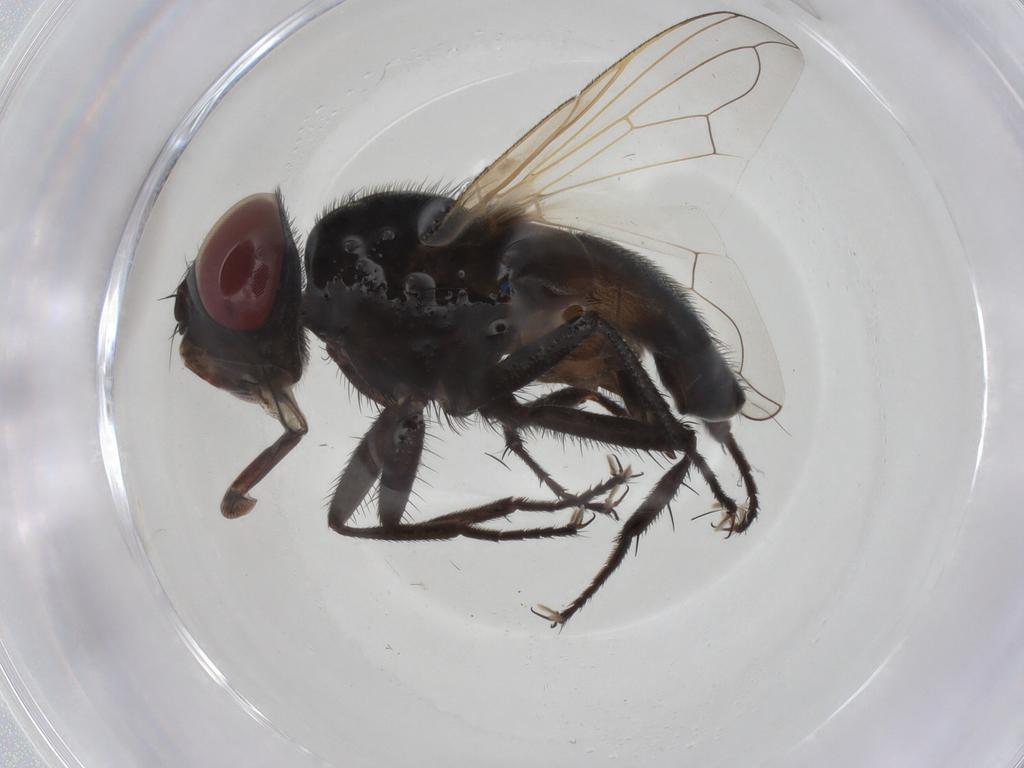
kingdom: Animalia
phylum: Arthropoda
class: Insecta
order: Diptera
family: Tachinidae
